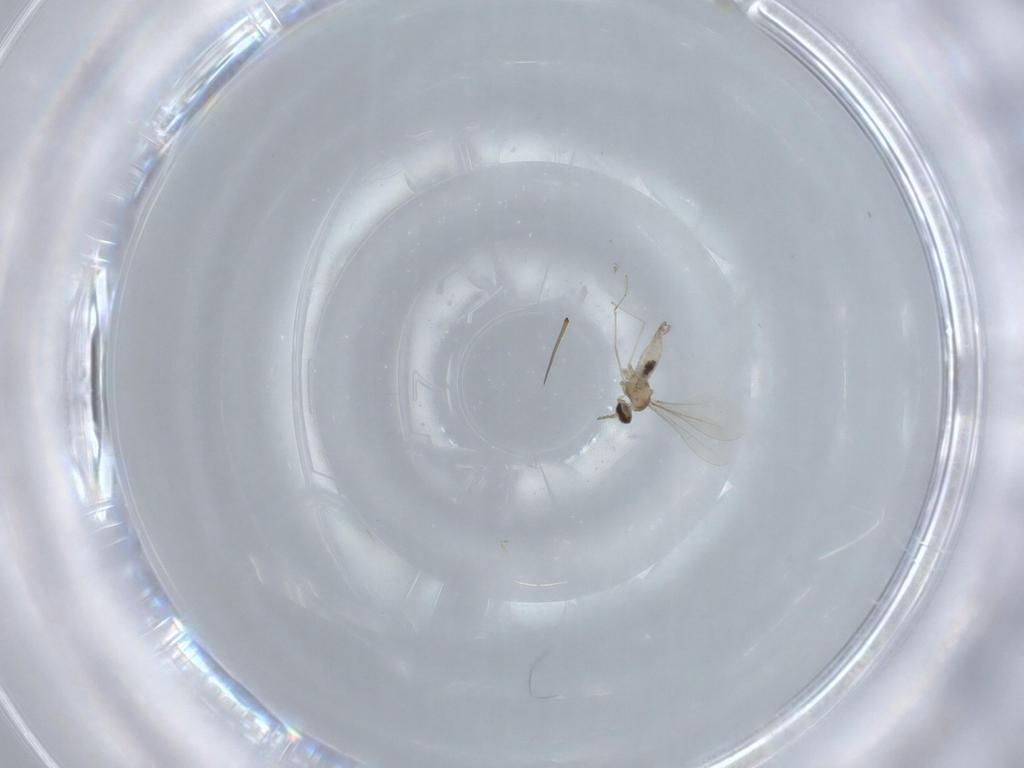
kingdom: Animalia
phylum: Arthropoda
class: Insecta
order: Diptera
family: Cecidomyiidae
